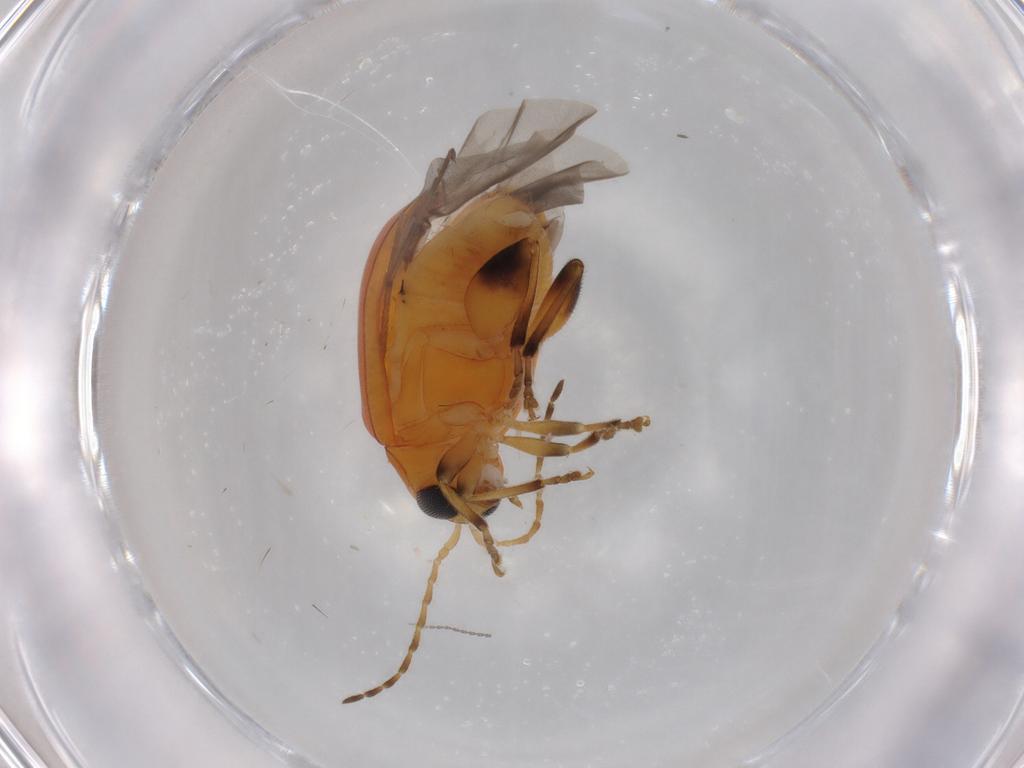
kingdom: Animalia
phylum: Arthropoda
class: Insecta
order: Coleoptera
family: Chrysomelidae
